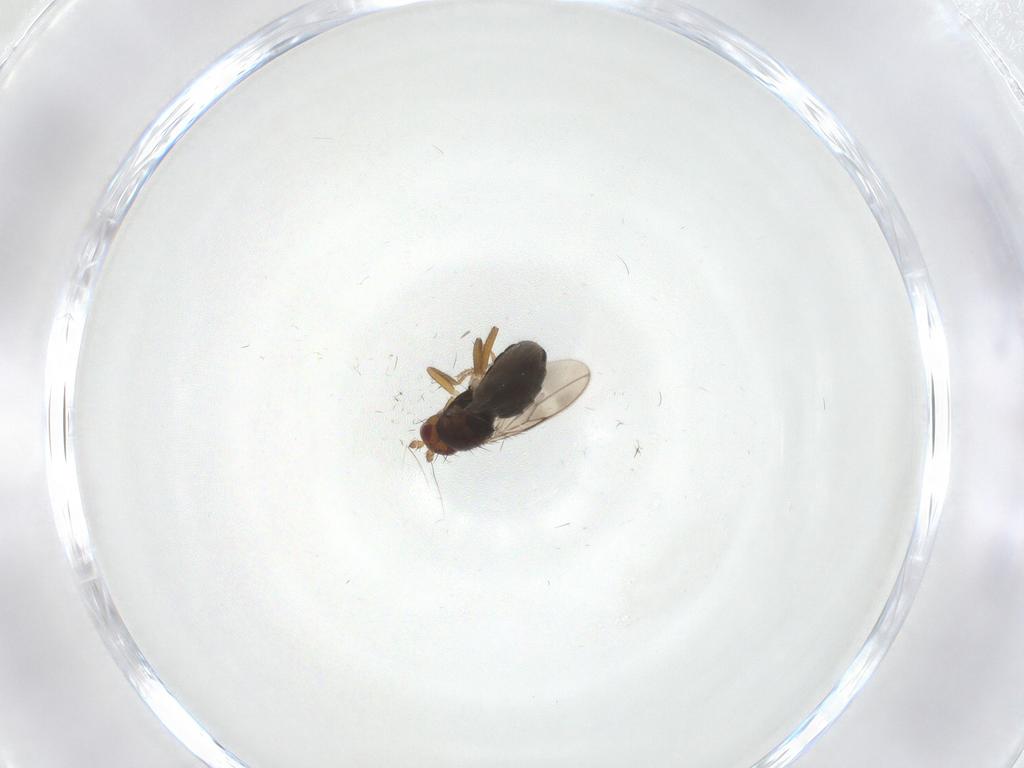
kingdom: Animalia
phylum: Arthropoda
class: Insecta
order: Diptera
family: Sphaeroceridae
